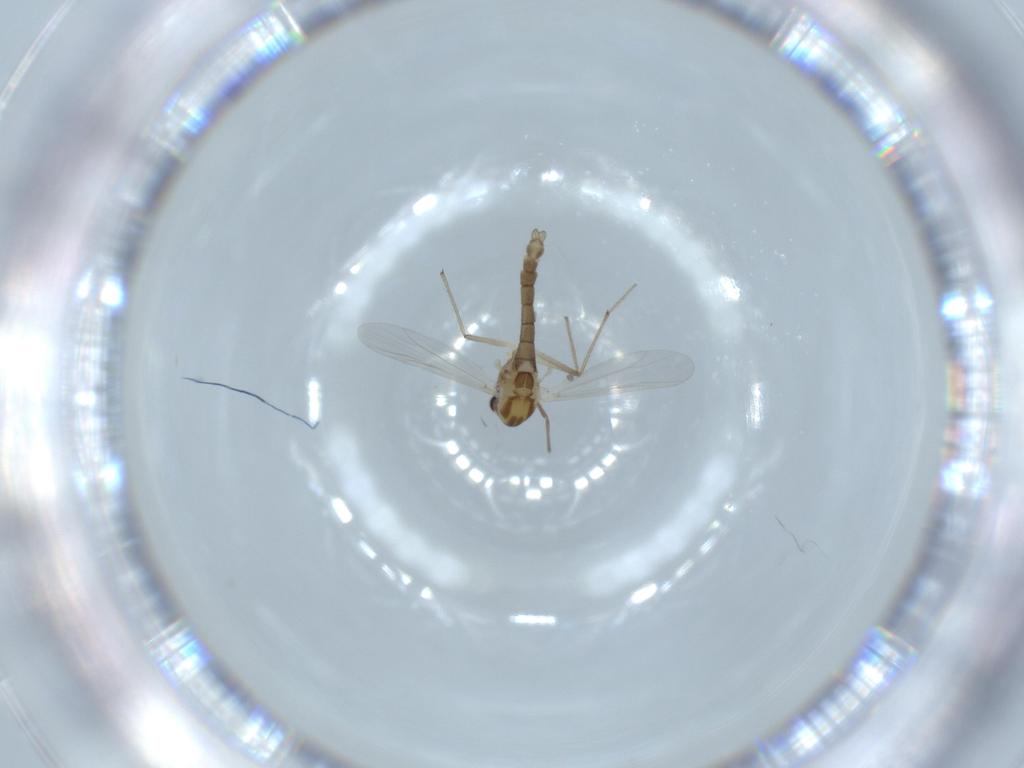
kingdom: Animalia
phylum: Arthropoda
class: Insecta
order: Diptera
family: Chironomidae
